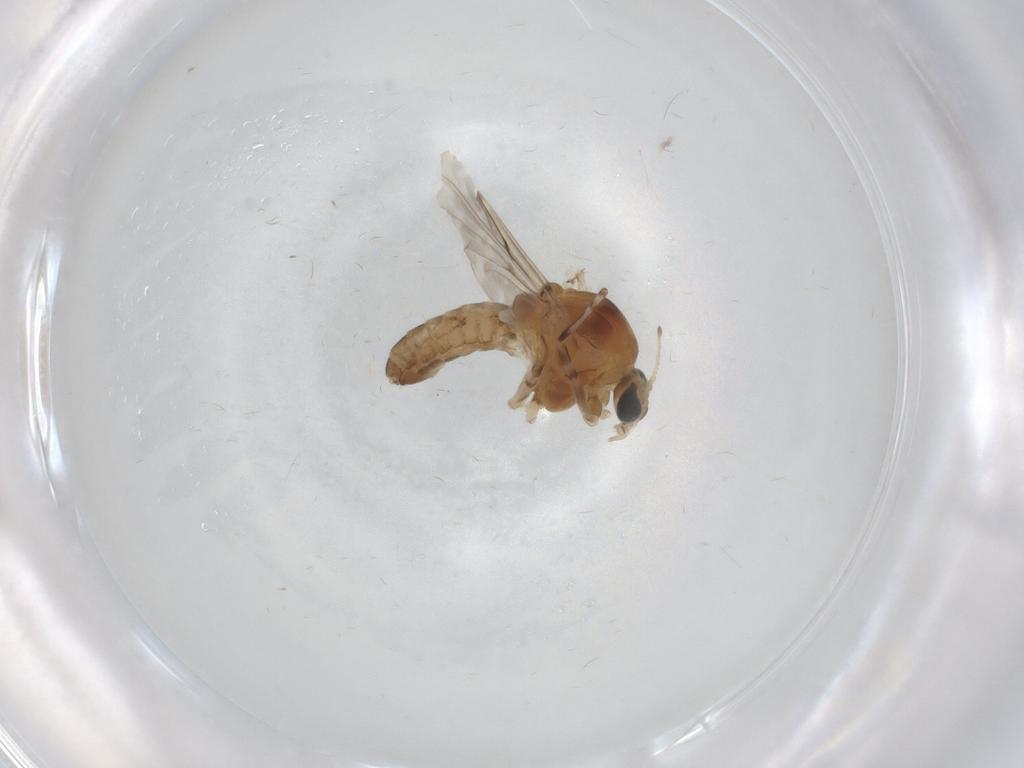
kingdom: Animalia
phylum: Arthropoda
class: Insecta
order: Diptera
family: Chironomidae
